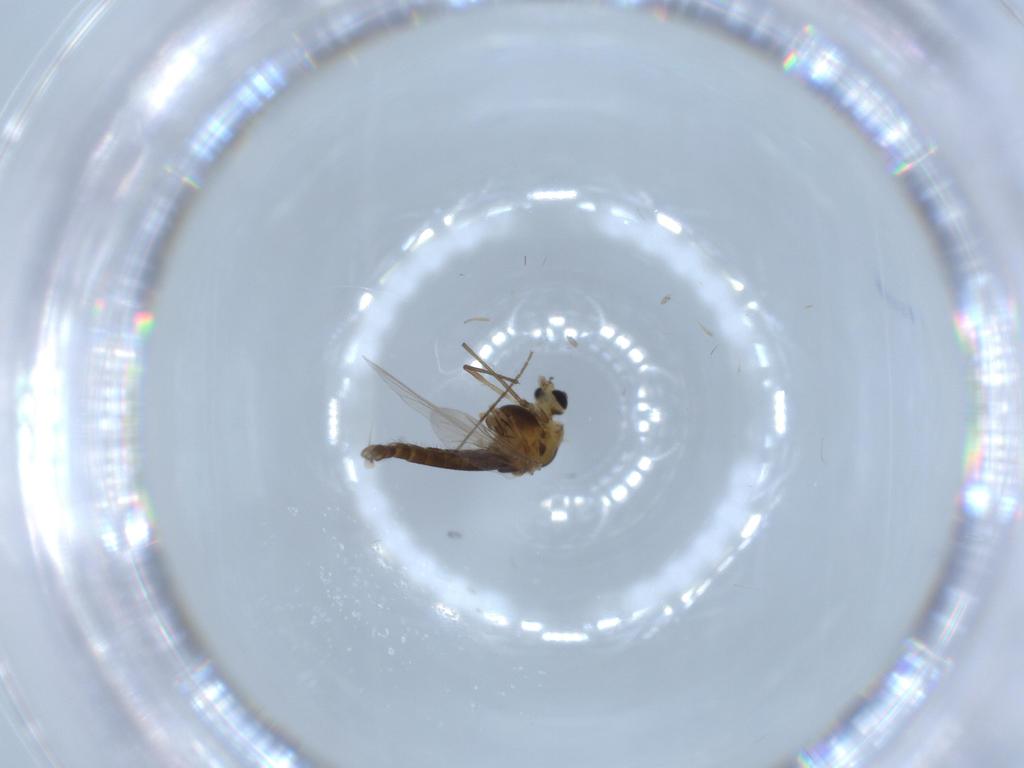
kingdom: Animalia
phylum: Arthropoda
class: Insecta
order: Diptera
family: Chironomidae
